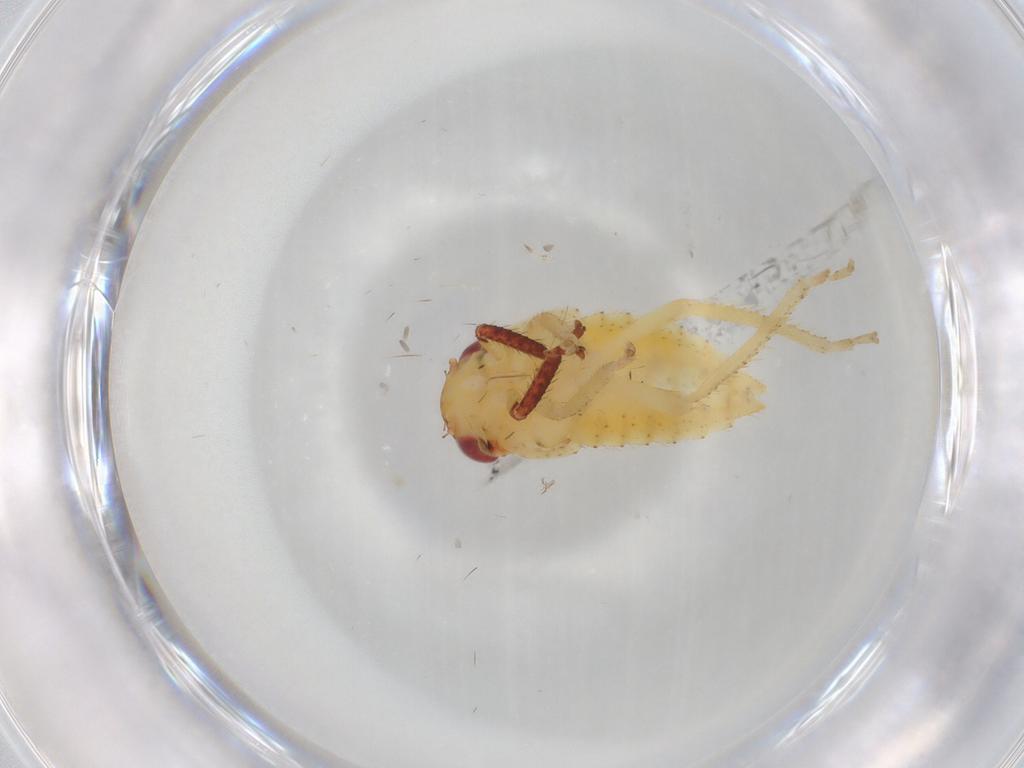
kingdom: Animalia
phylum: Arthropoda
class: Insecta
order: Hemiptera
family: Cicadellidae
